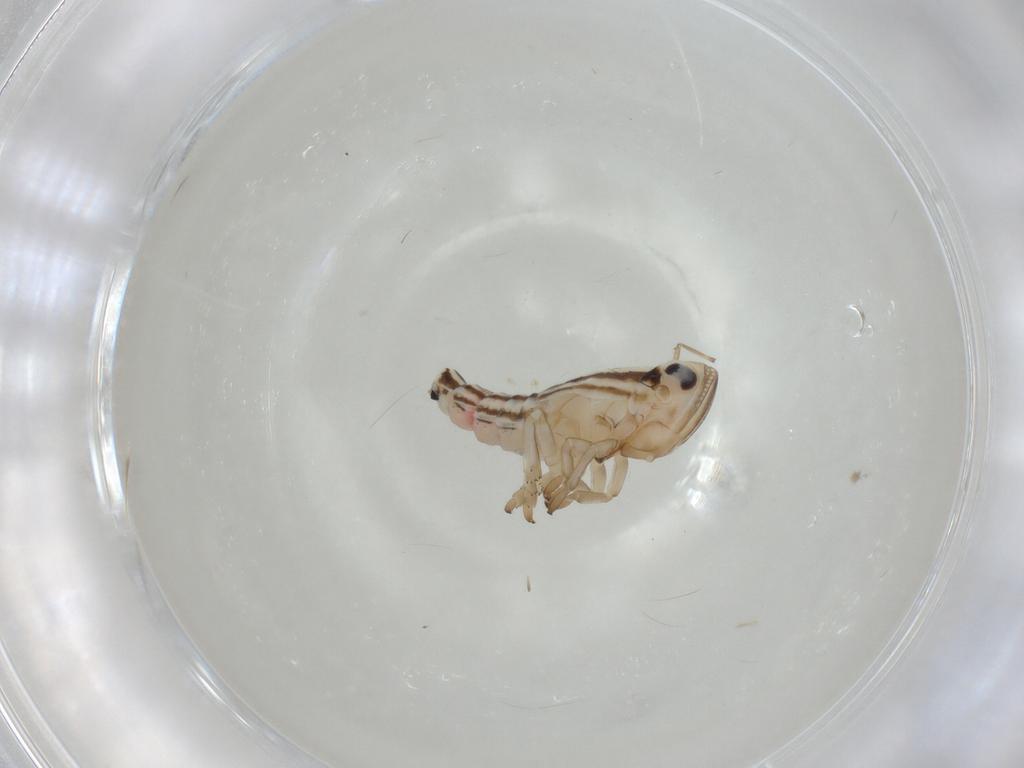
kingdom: Animalia
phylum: Arthropoda
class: Insecta
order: Hemiptera
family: Fulgoroidea_incertae_sedis
